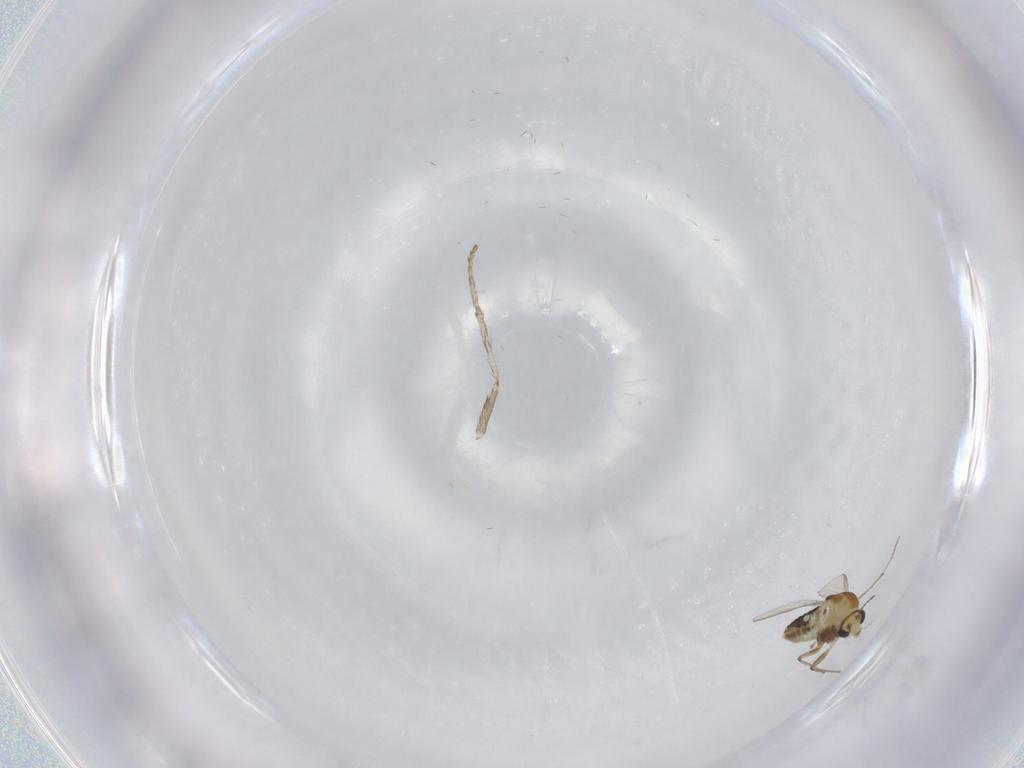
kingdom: Animalia
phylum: Arthropoda
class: Insecta
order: Diptera
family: Chironomidae
